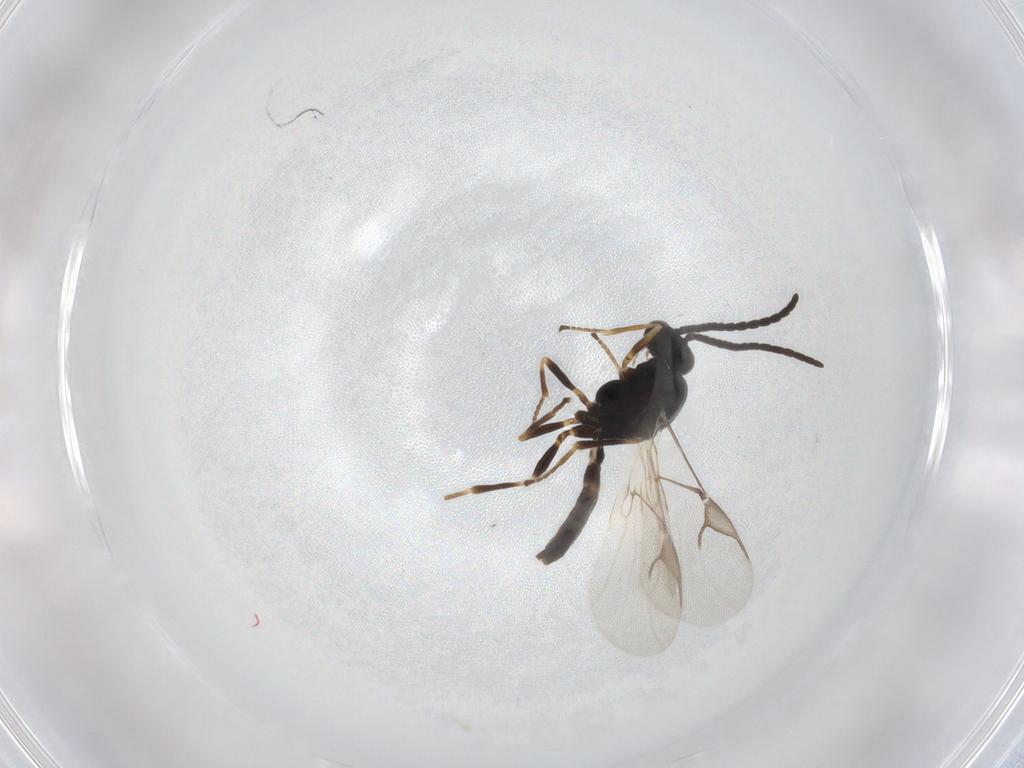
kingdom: Animalia
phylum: Arthropoda
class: Insecta
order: Hymenoptera
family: Braconidae
